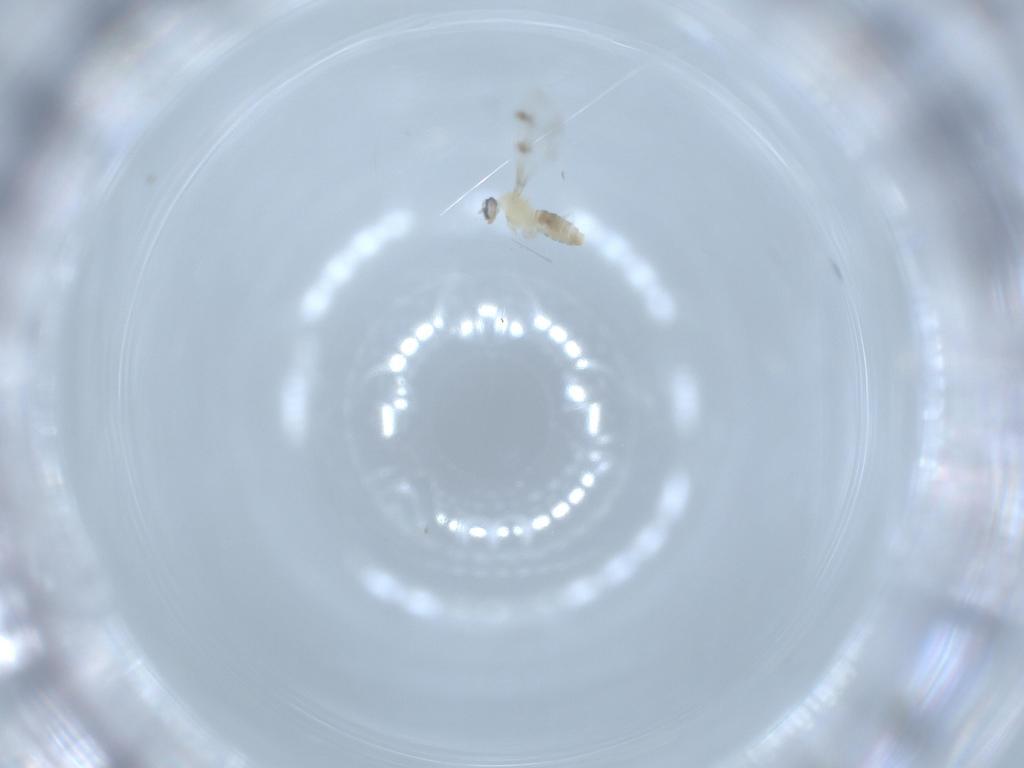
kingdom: Animalia
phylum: Arthropoda
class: Insecta
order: Diptera
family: Cecidomyiidae
